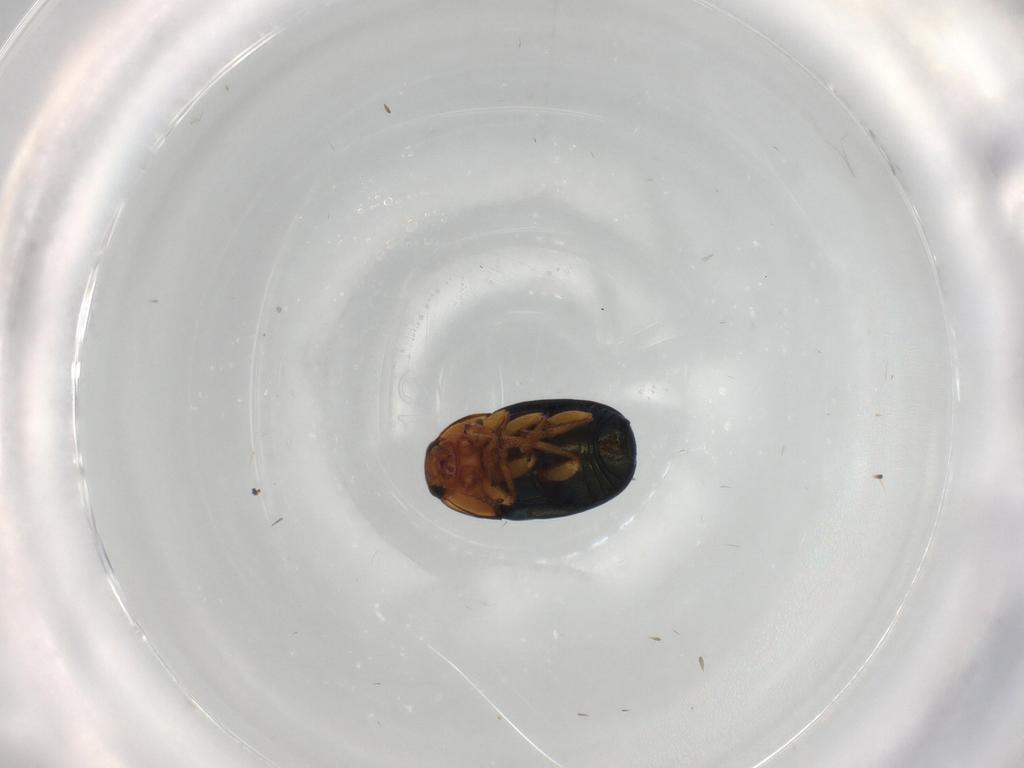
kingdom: Animalia
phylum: Arthropoda
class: Insecta
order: Coleoptera
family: Chrysomelidae
